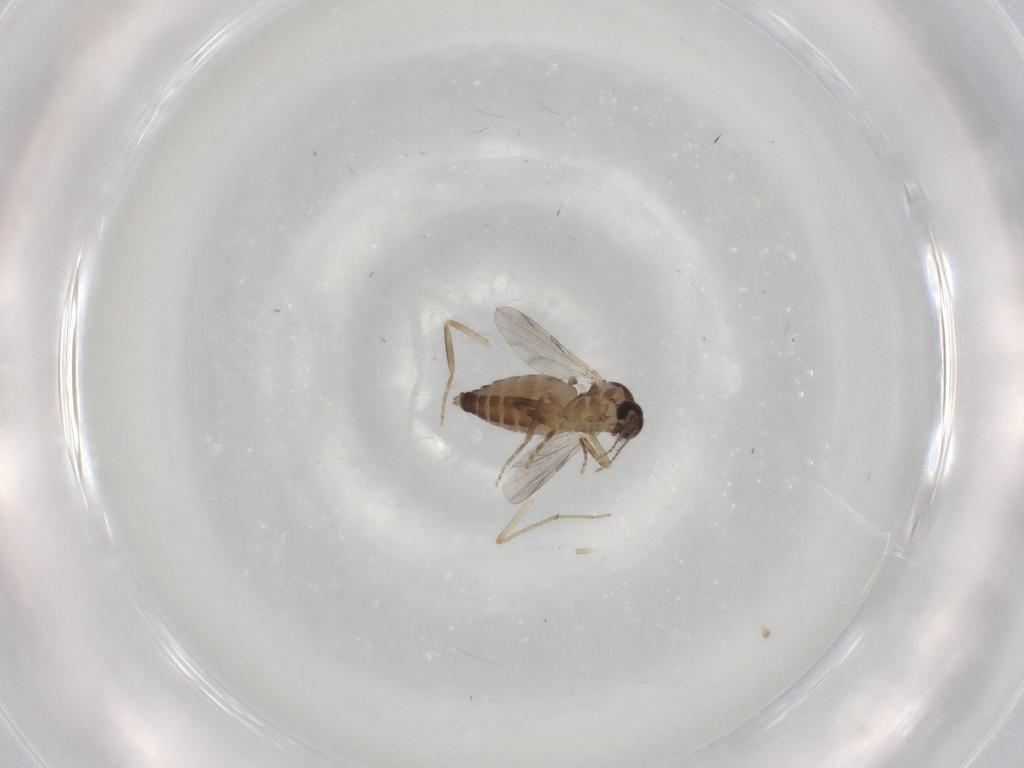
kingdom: Animalia
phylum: Arthropoda
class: Insecta
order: Diptera
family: Ceratopogonidae
